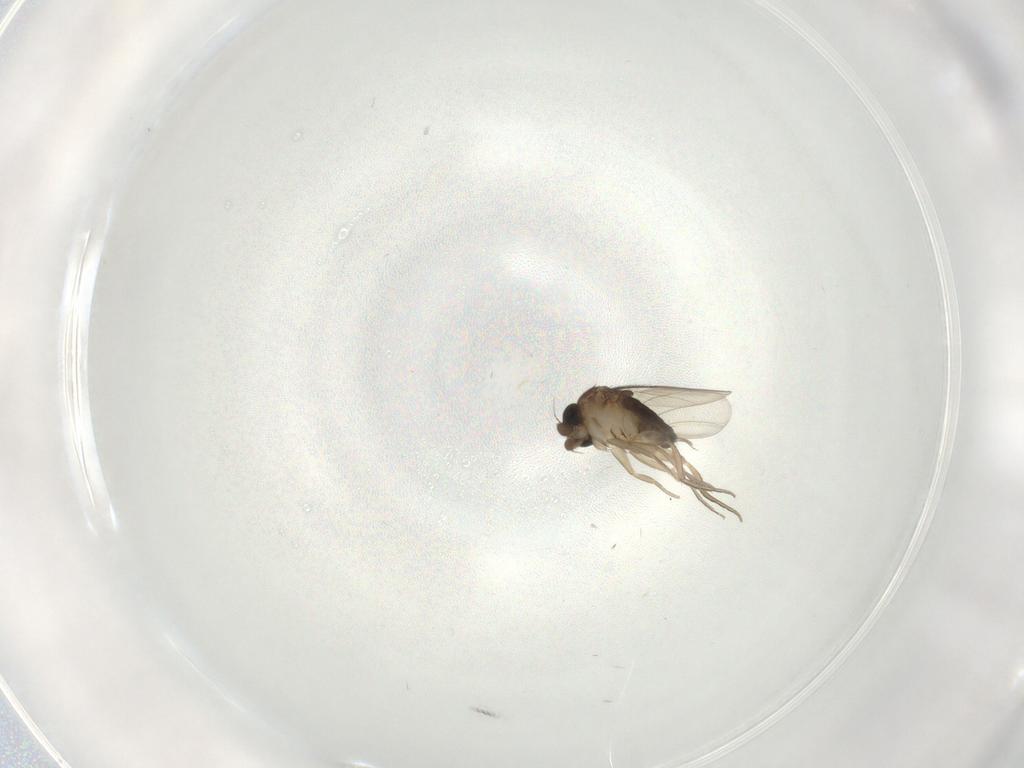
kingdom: Animalia
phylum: Arthropoda
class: Insecta
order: Diptera
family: Phoridae
